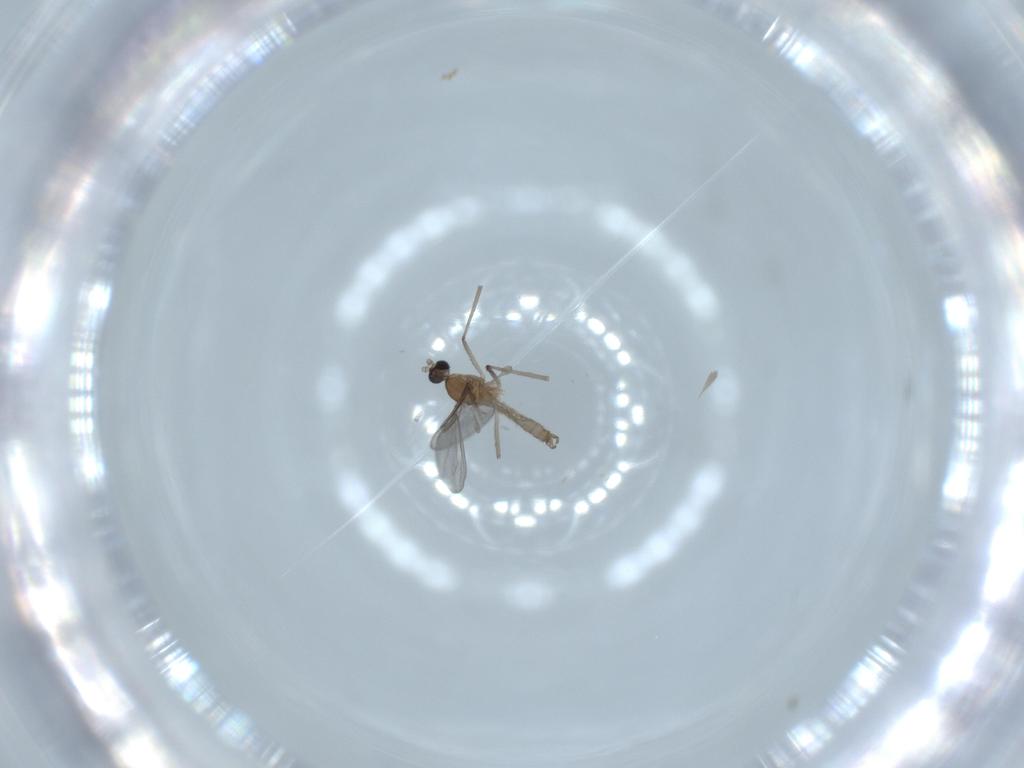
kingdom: Animalia
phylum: Arthropoda
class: Insecta
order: Diptera
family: Cecidomyiidae
